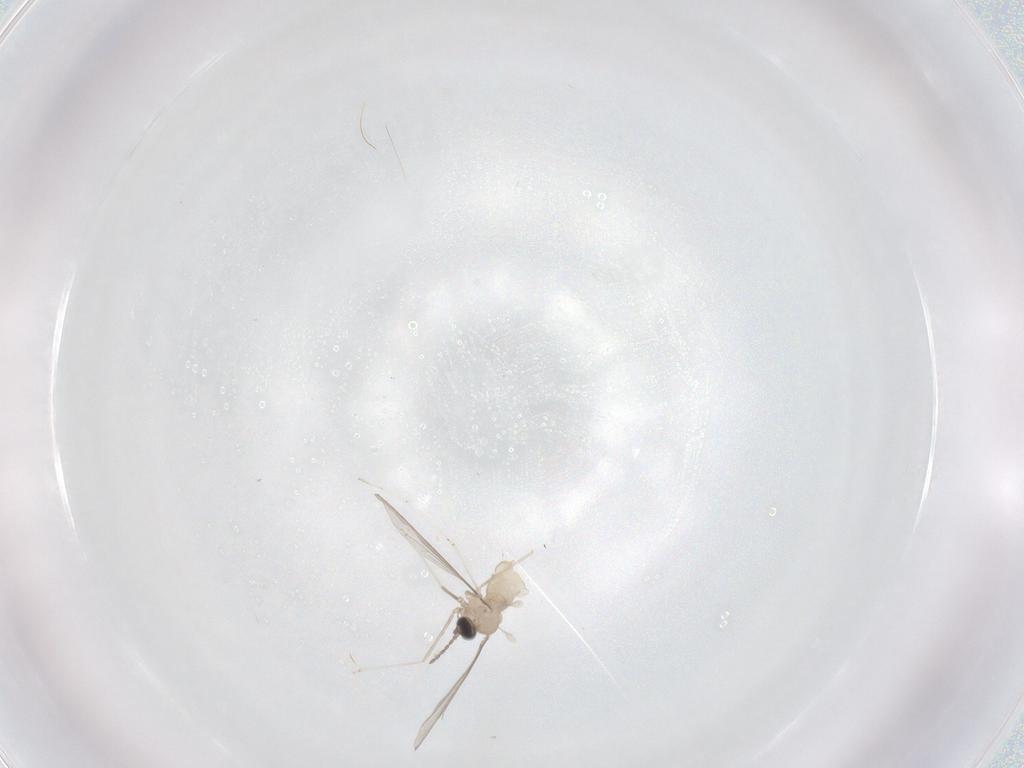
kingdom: Animalia
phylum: Arthropoda
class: Insecta
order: Diptera
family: Cecidomyiidae
